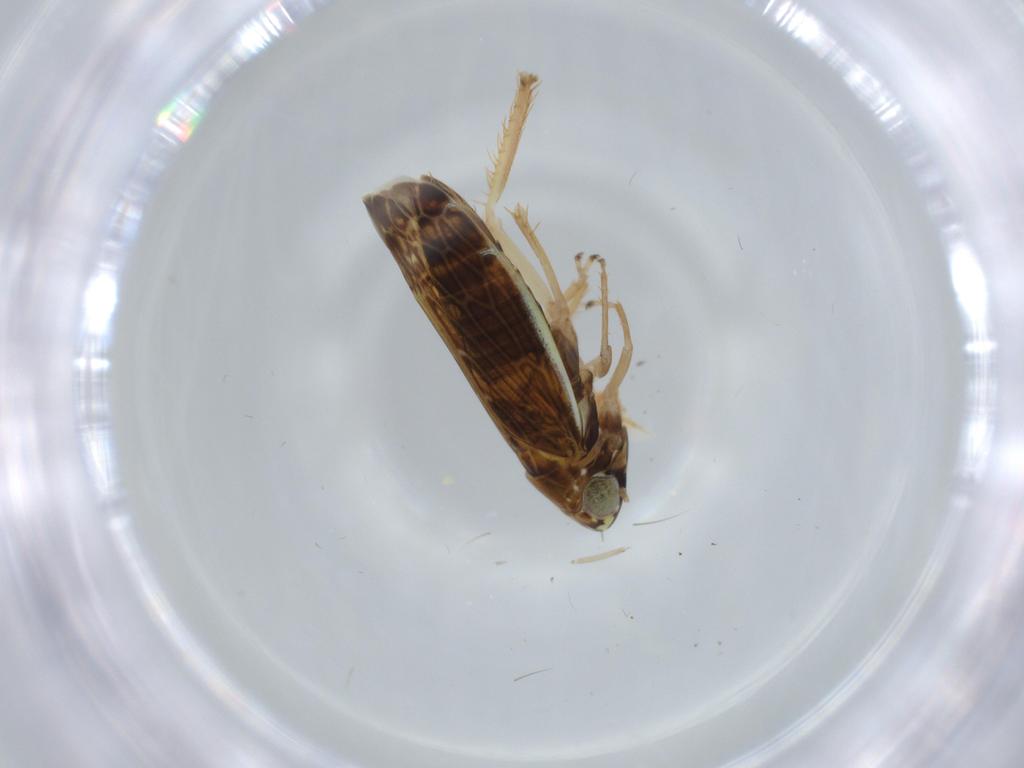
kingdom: Animalia
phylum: Arthropoda
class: Insecta
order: Hemiptera
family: Cicadellidae
